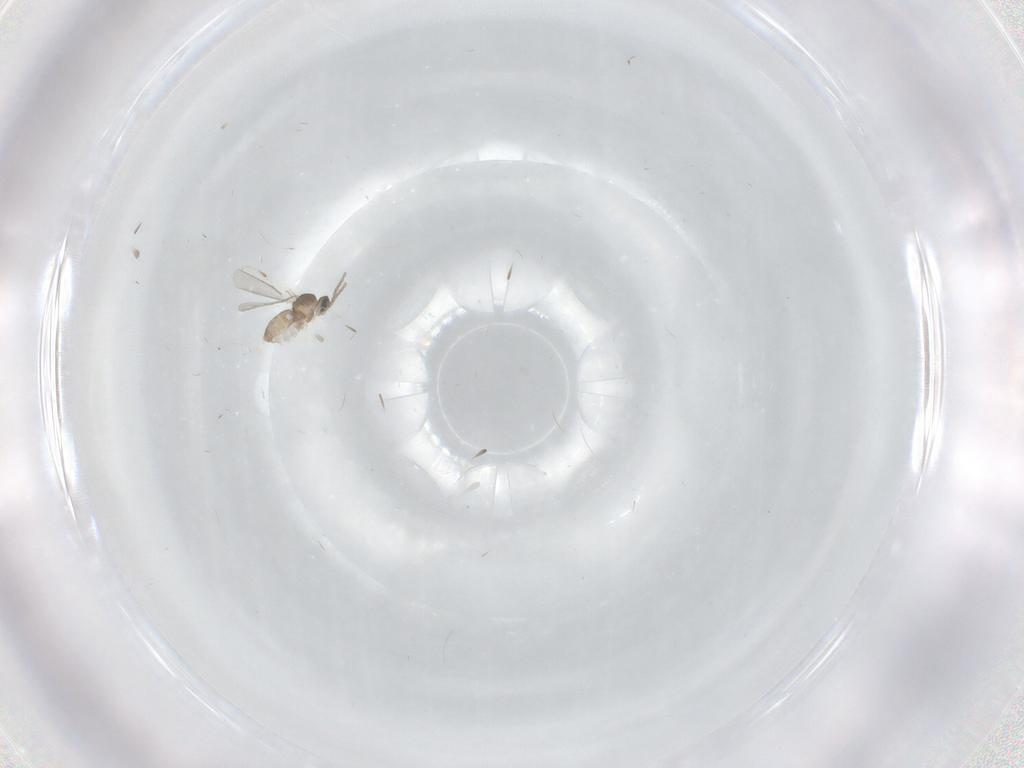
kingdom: Animalia
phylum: Arthropoda
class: Insecta
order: Diptera
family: Cecidomyiidae
